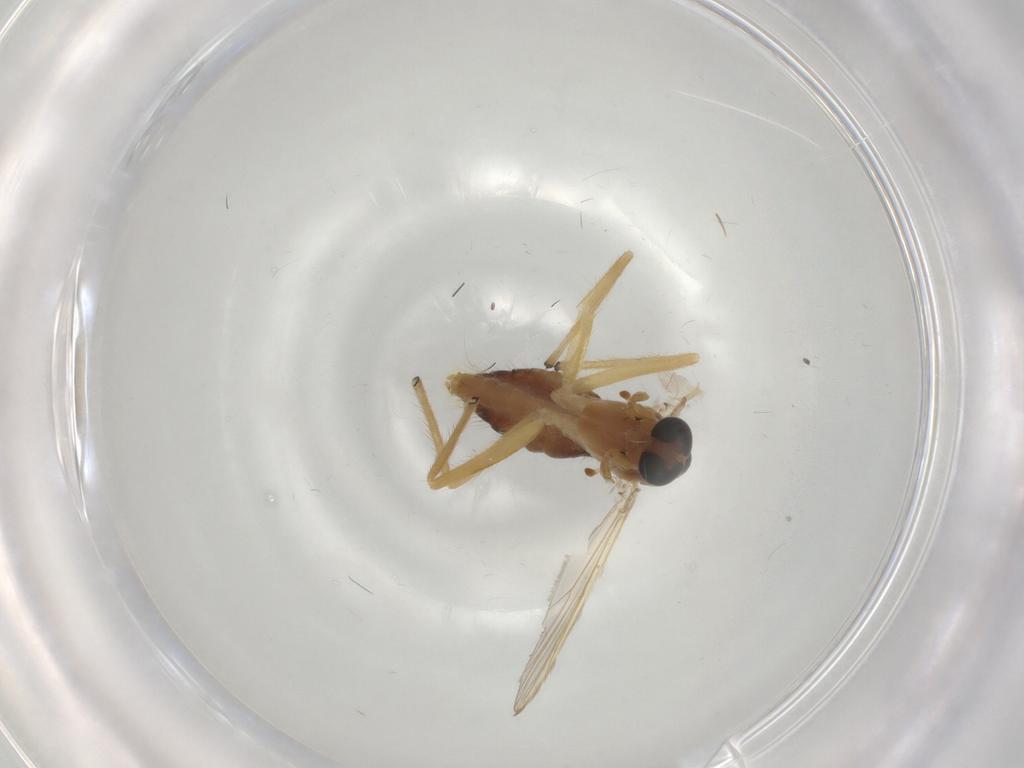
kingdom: Animalia
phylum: Arthropoda
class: Insecta
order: Diptera
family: Chironomidae
